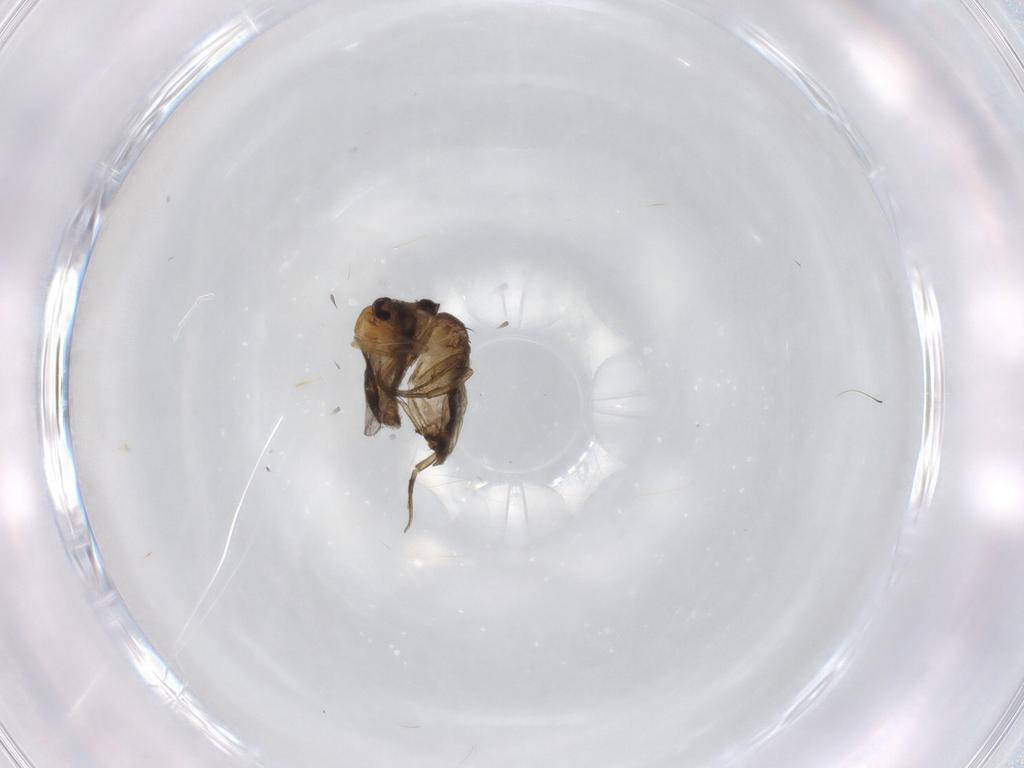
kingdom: Animalia
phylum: Arthropoda
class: Insecta
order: Diptera
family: Cecidomyiidae
